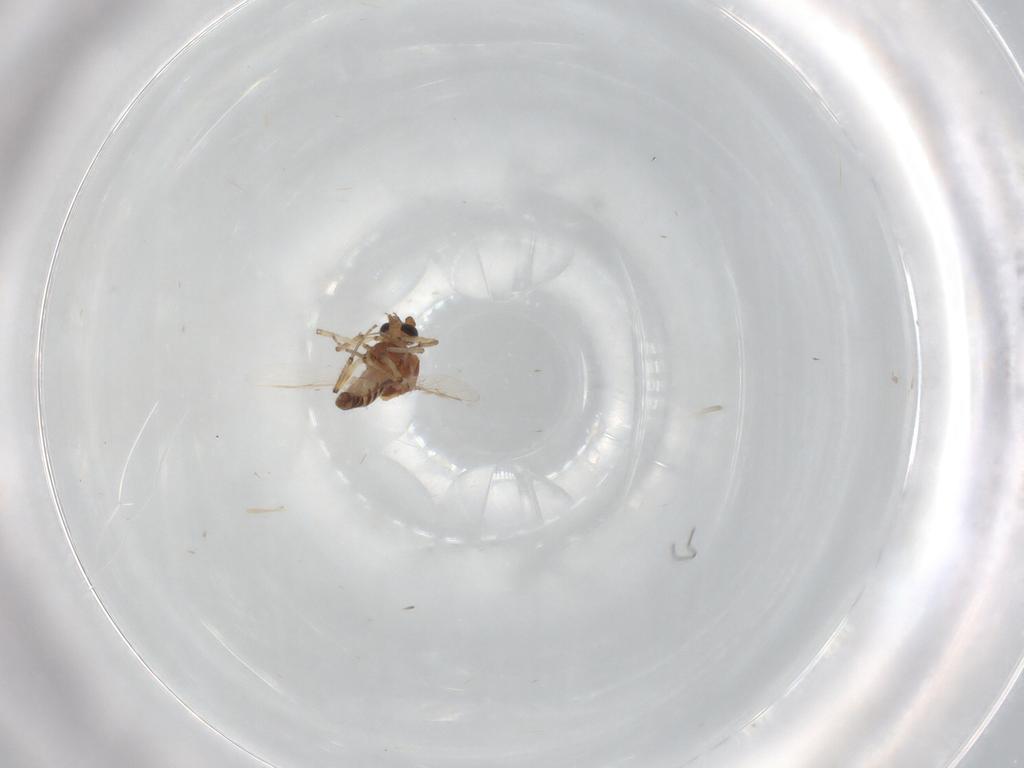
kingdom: Animalia
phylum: Arthropoda
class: Insecta
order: Diptera
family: Ceratopogonidae
